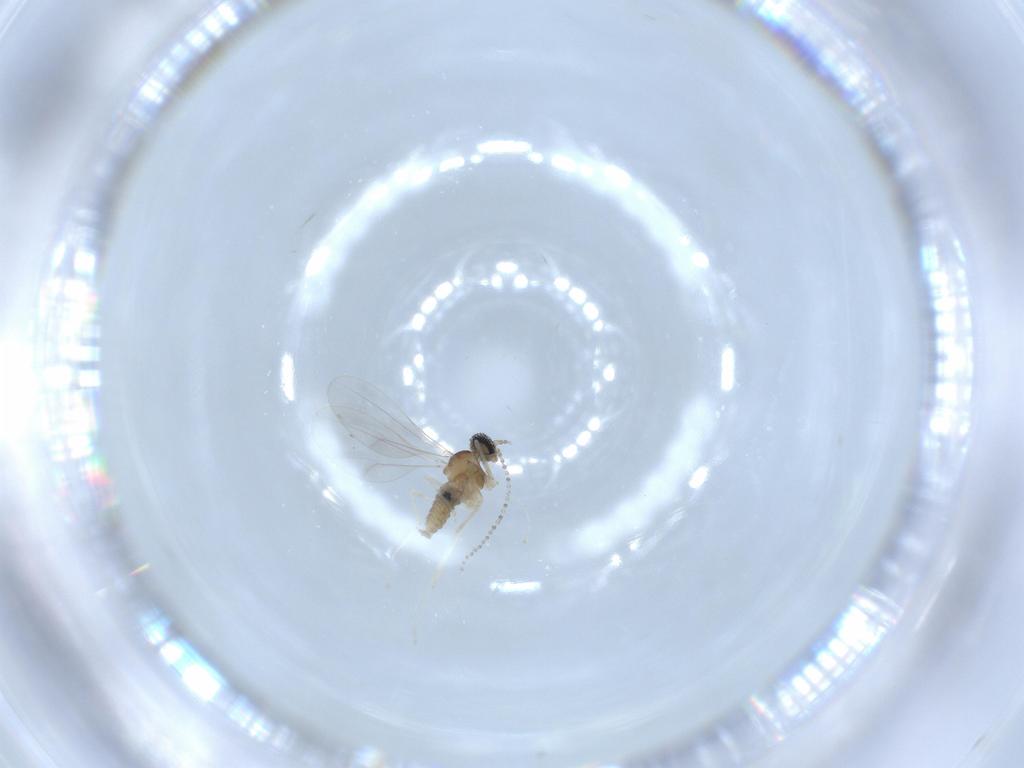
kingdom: Animalia
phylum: Arthropoda
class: Insecta
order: Diptera
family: Cecidomyiidae
